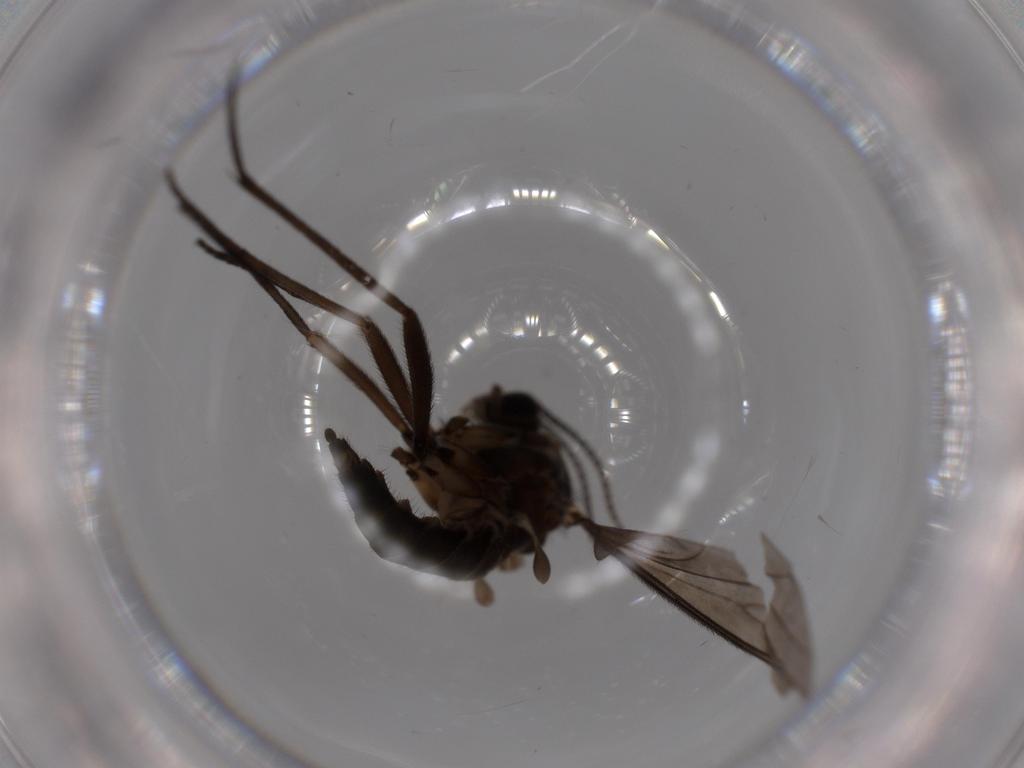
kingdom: Animalia
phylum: Arthropoda
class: Insecta
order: Diptera
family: Sciaridae
